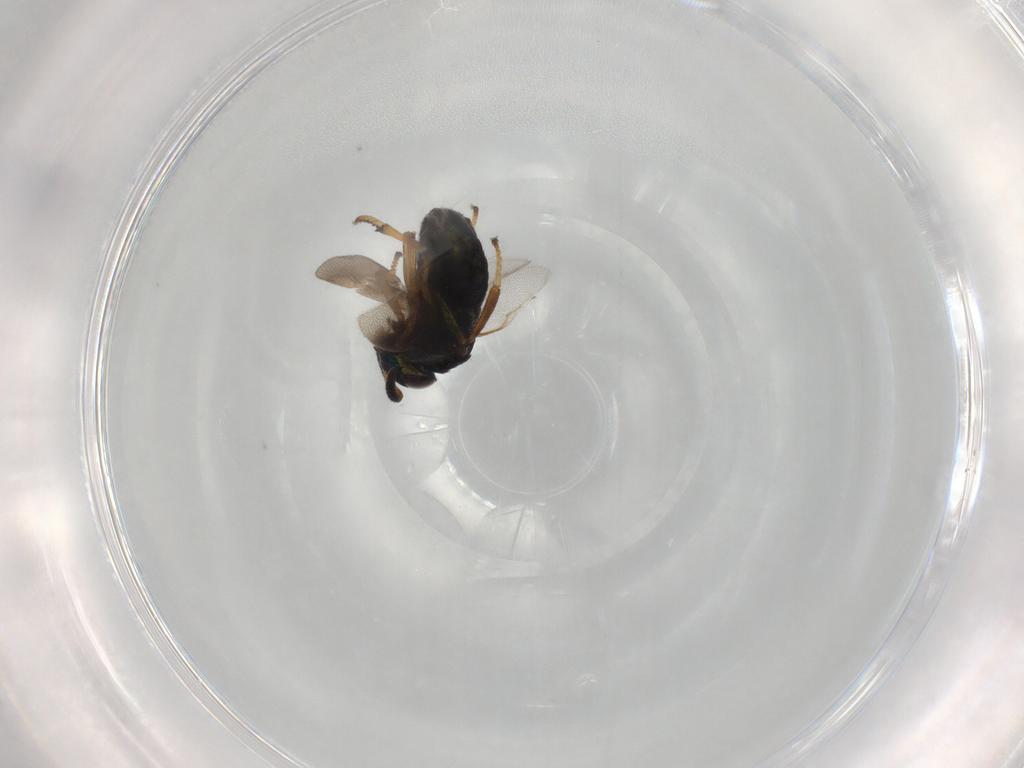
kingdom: Animalia
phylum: Arthropoda
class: Insecta
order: Hymenoptera
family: Encyrtidae
